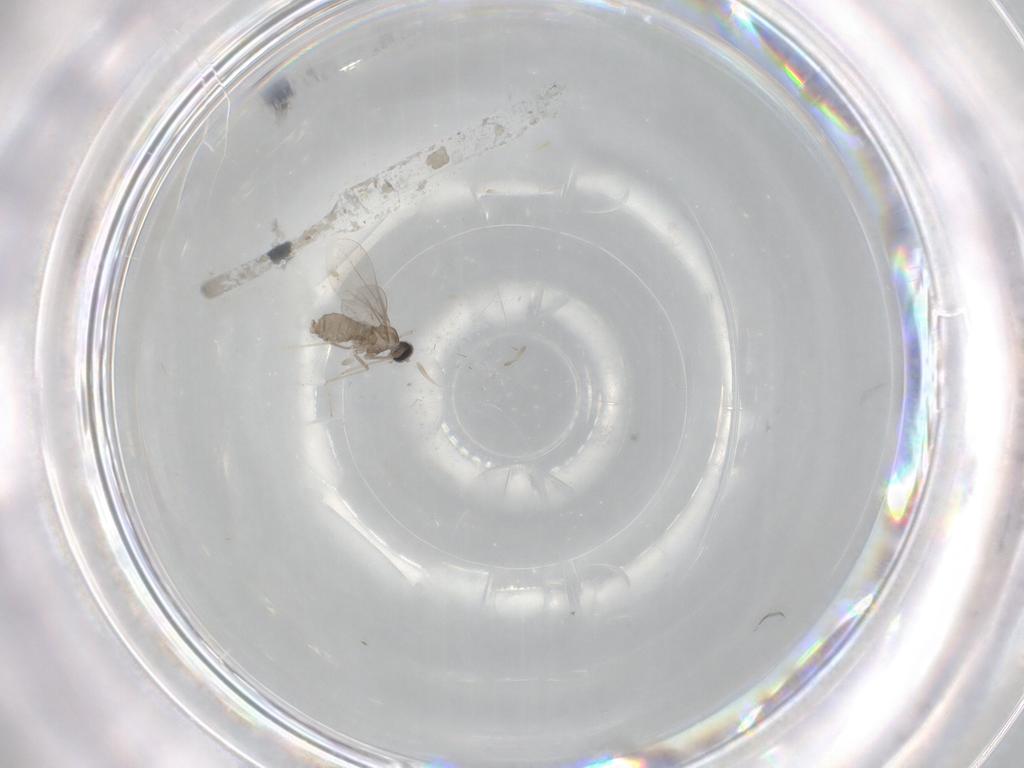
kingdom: Animalia
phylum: Arthropoda
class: Insecta
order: Diptera
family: Cecidomyiidae
